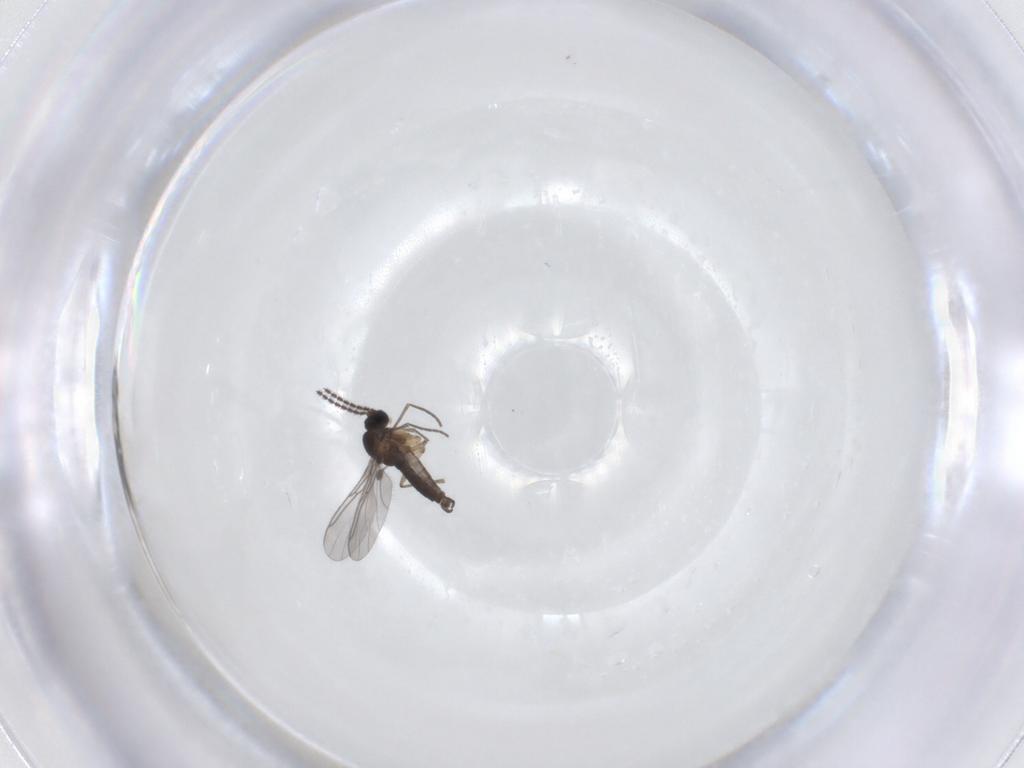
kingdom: Animalia
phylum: Arthropoda
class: Insecta
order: Diptera
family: Sciaridae
